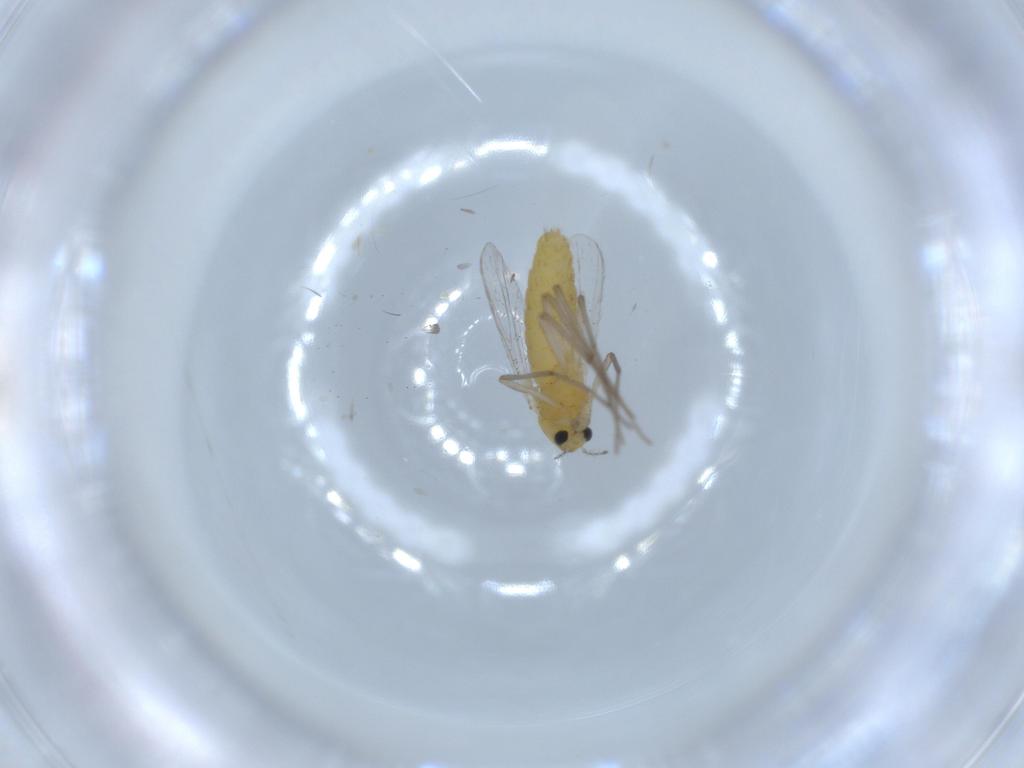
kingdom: Animalia
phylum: Arthropoda
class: Insecta
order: Diptera
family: Chironomidae
